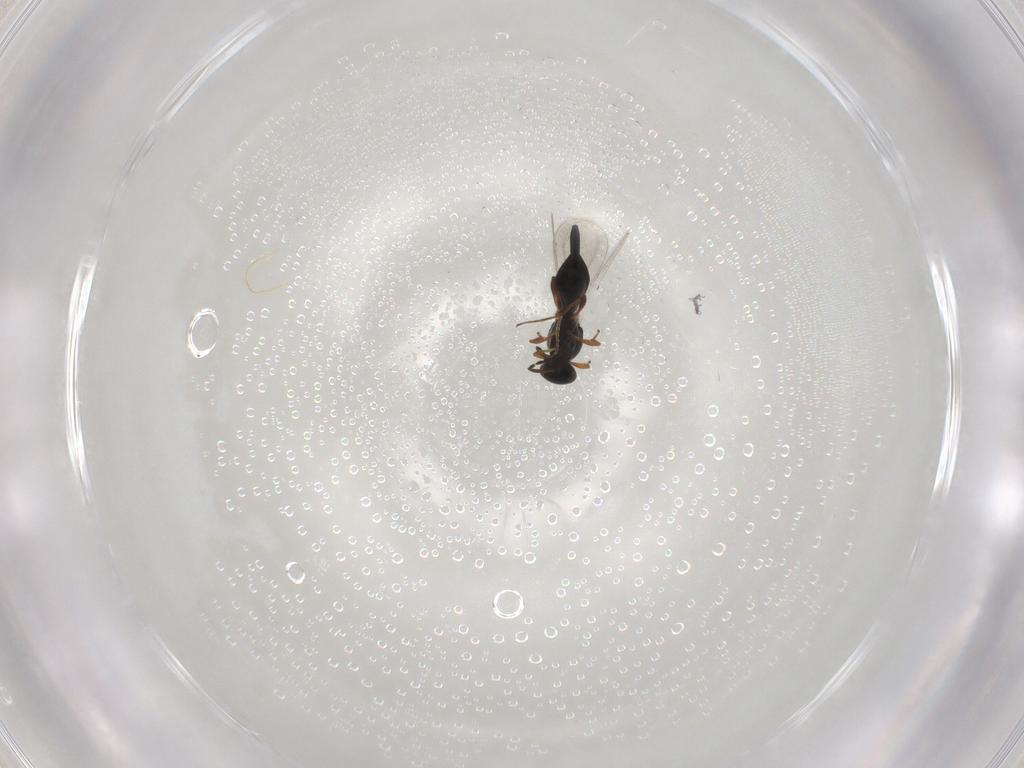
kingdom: Animalia
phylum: Arthropoda
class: Insecta
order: Hymenoptera
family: Platygastridae
